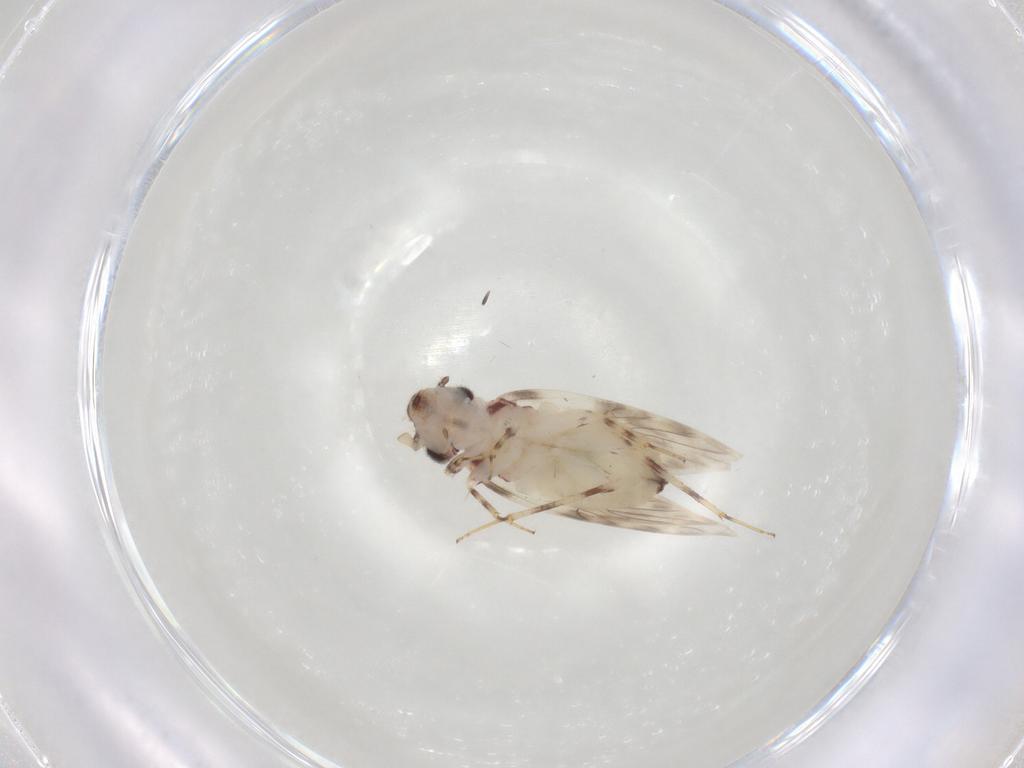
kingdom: Animalia
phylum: Arthropoda
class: Insecta
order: Psocodea
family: Lepidopsocidae
